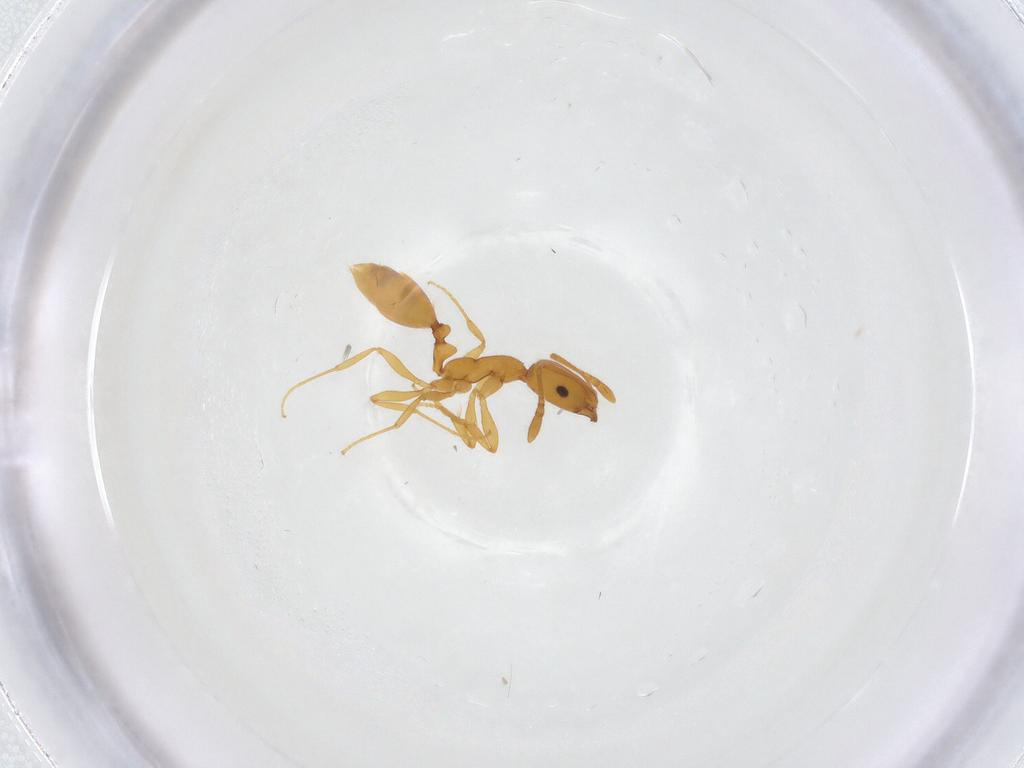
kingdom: Animalia
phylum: Arthropoda
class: Insecta
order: Hymenoptera
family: Formicidae
